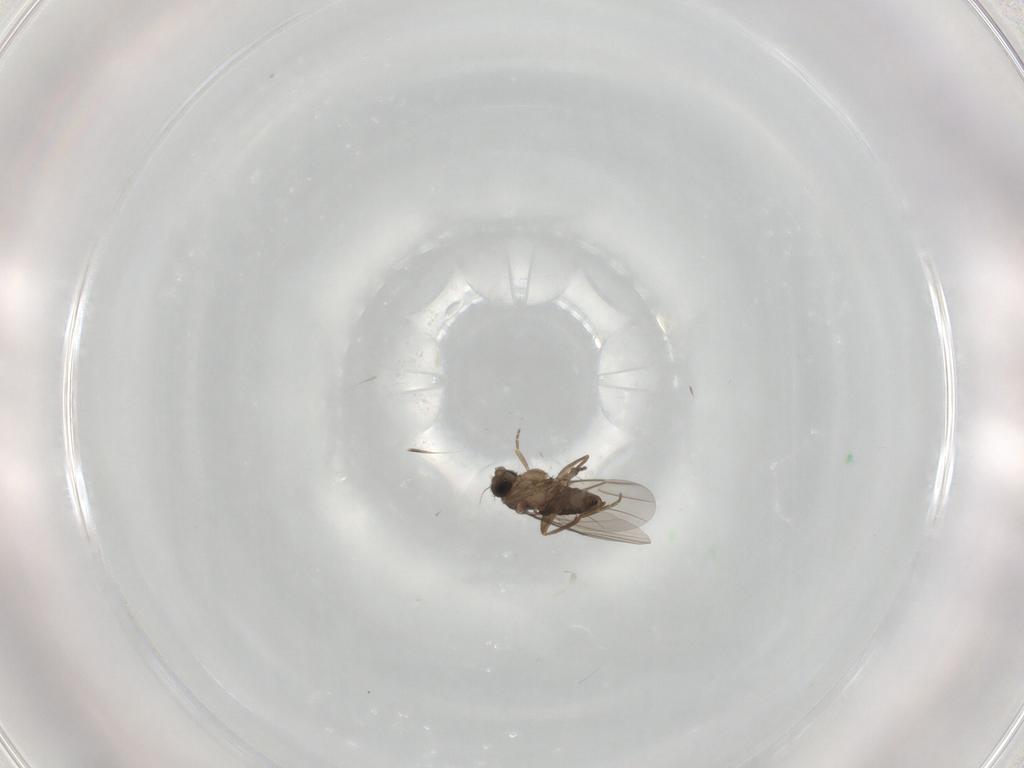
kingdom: Animalia
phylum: Arthropoda
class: Insecta
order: Diptera
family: Phoridae
